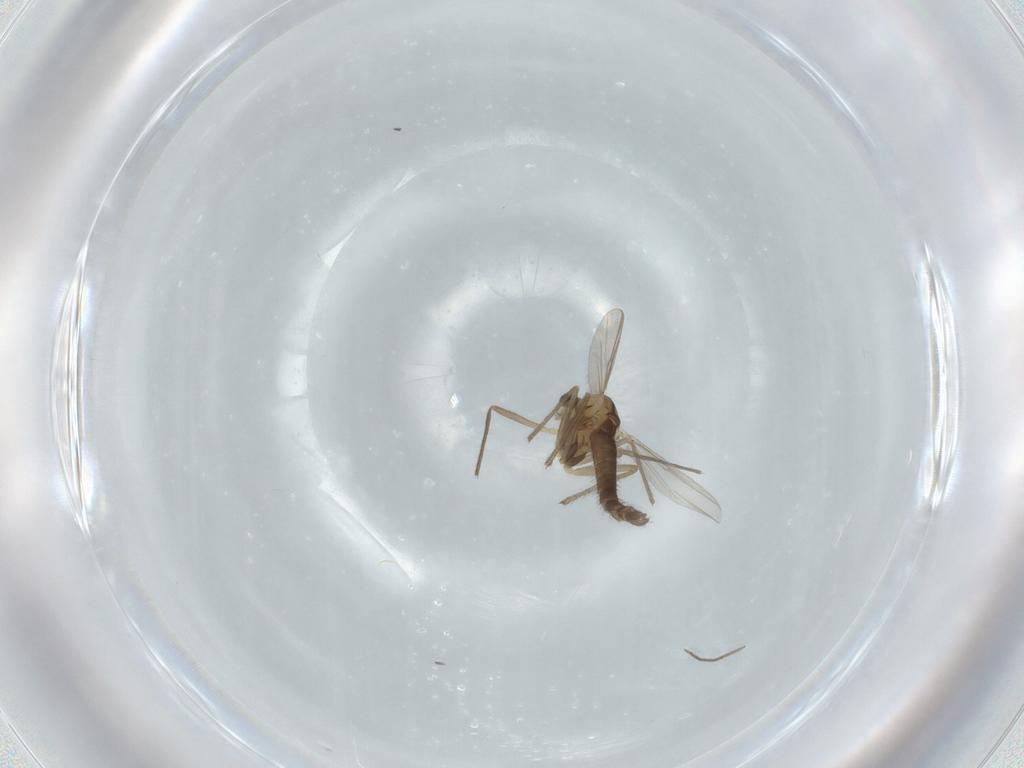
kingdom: Animalia
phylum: Arthropoda
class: Insecta
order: Diptera
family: Chironomidae
